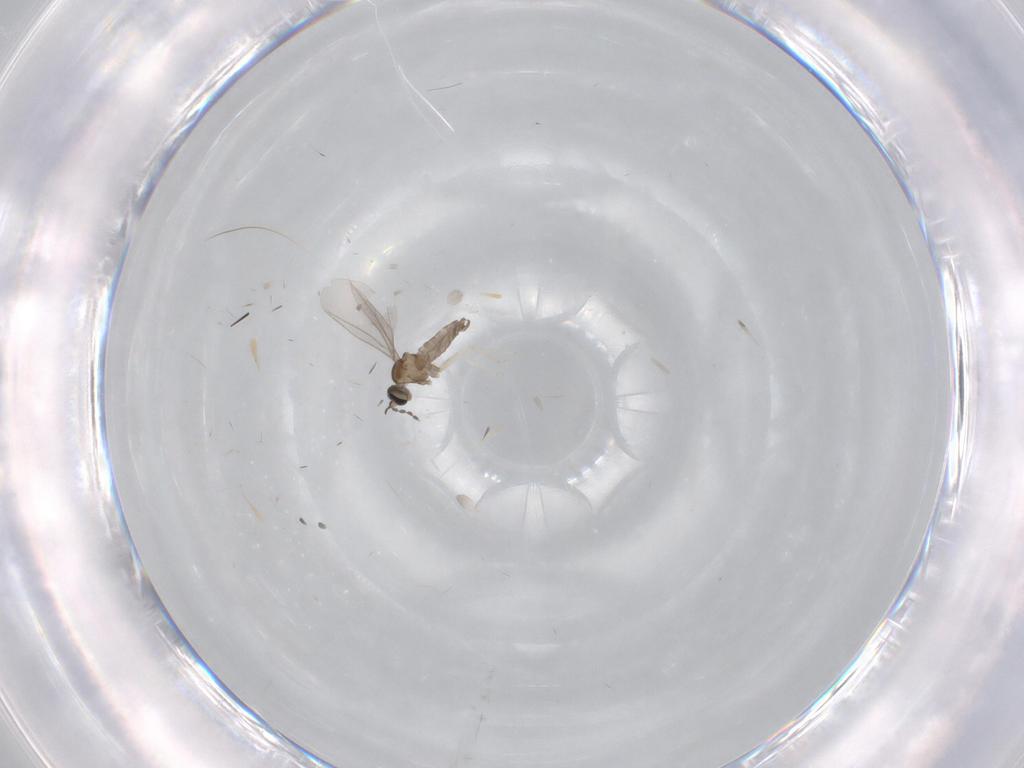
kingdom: Animalia
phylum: Arthropoda
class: Insecta
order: Diptera
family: Cecidomyiidae
